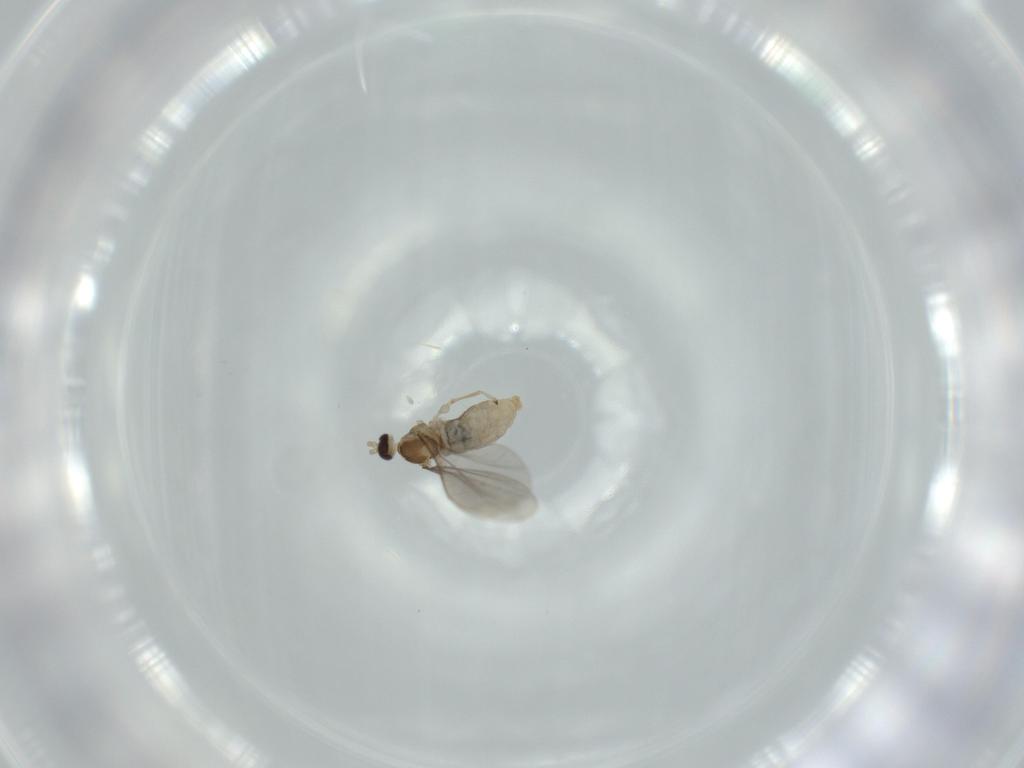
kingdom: Animalia
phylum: Arthropoda
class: Insecta
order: Diptera
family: Cecidomyiidae
